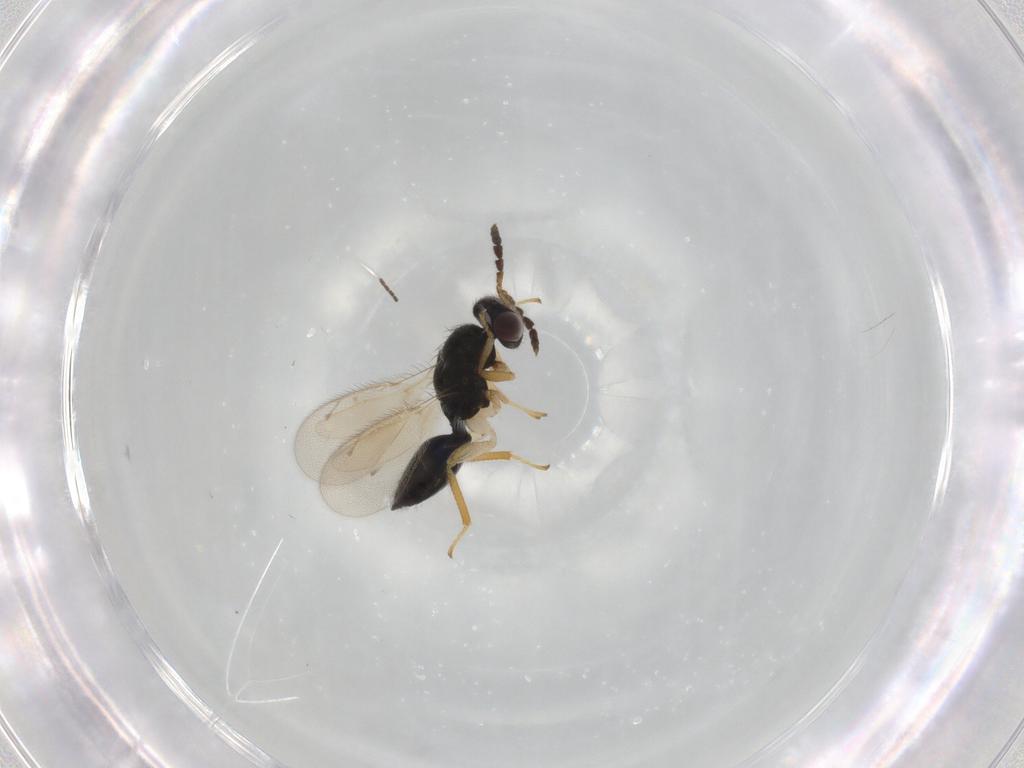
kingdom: Animalia
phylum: Arthropoda
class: Insecta
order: Hymenoptera
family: Eulophidae
